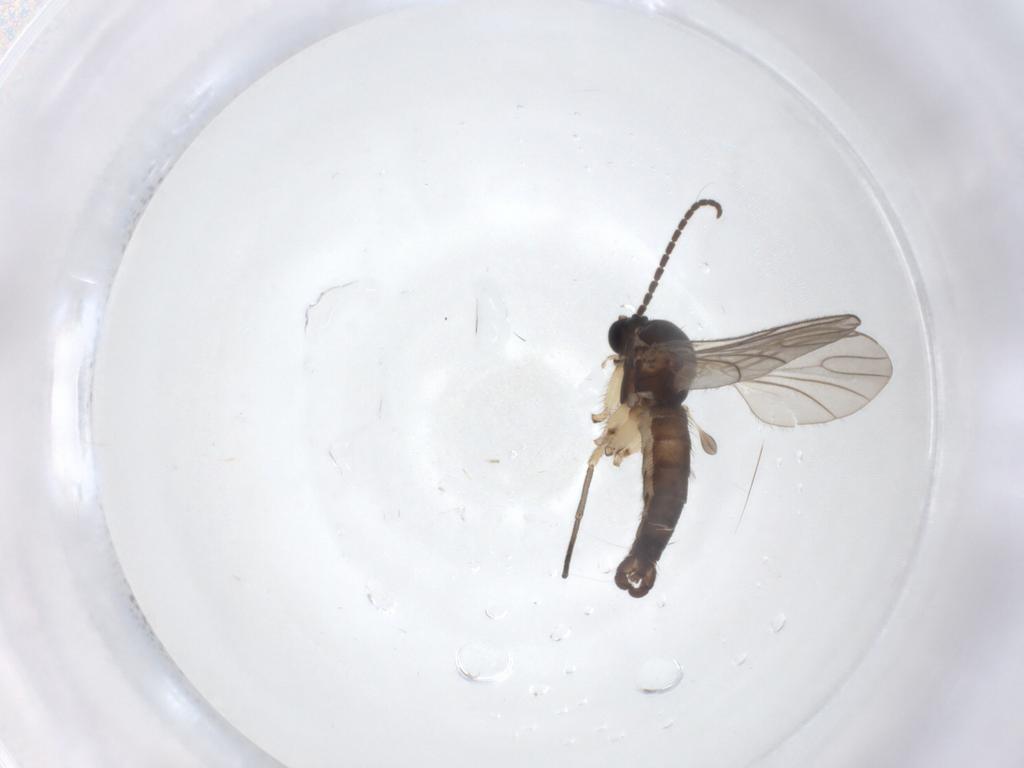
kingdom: Animalia
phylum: Arthropoda
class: Insecta
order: Diptera
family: Sciaridae
